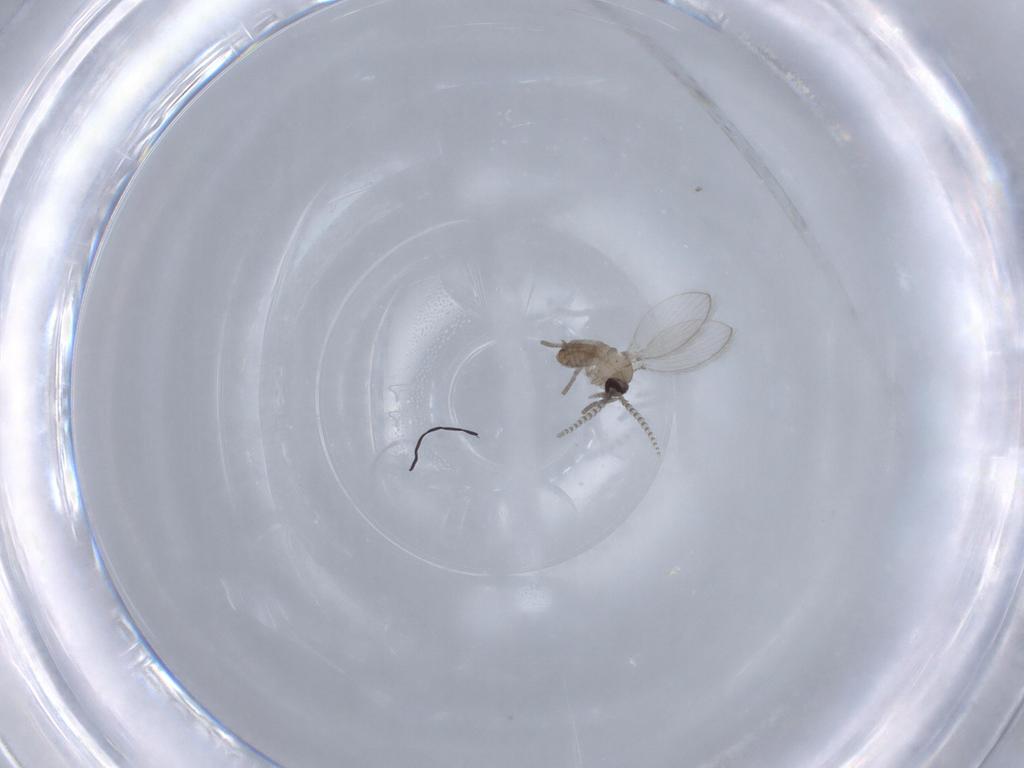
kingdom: Animalia
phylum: Arthropoda
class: Insecta
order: Diptera
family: Psychodidae
